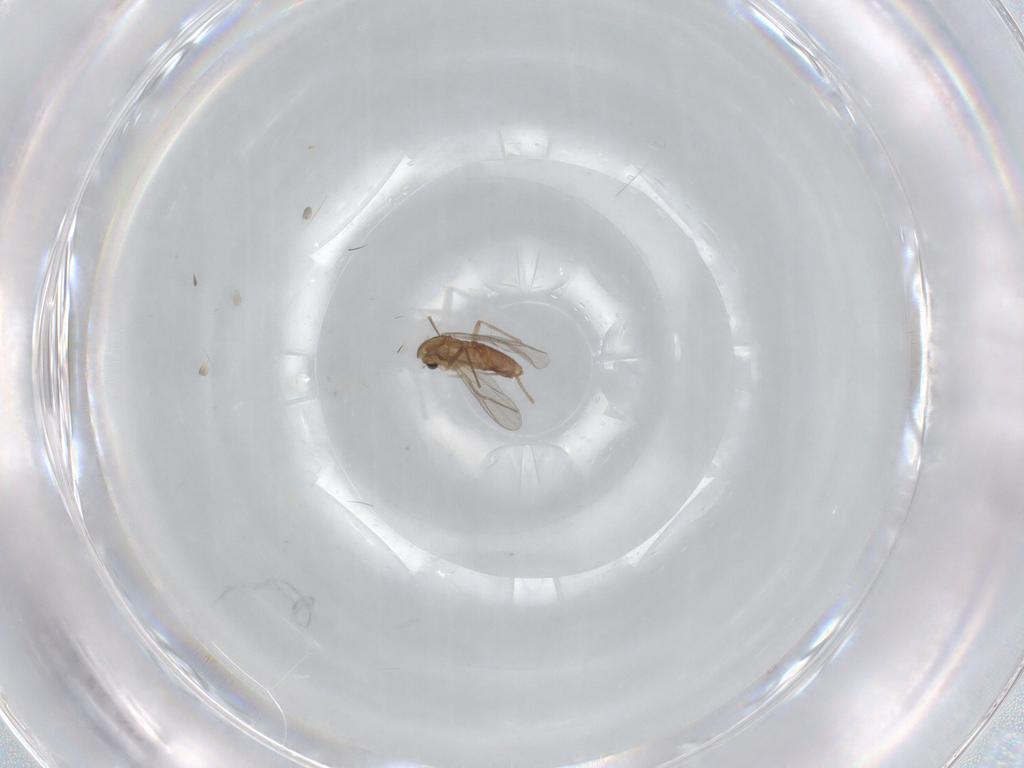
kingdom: Animalia
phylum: Arthropoda
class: Insecta
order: Diptera
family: Chironomidae
